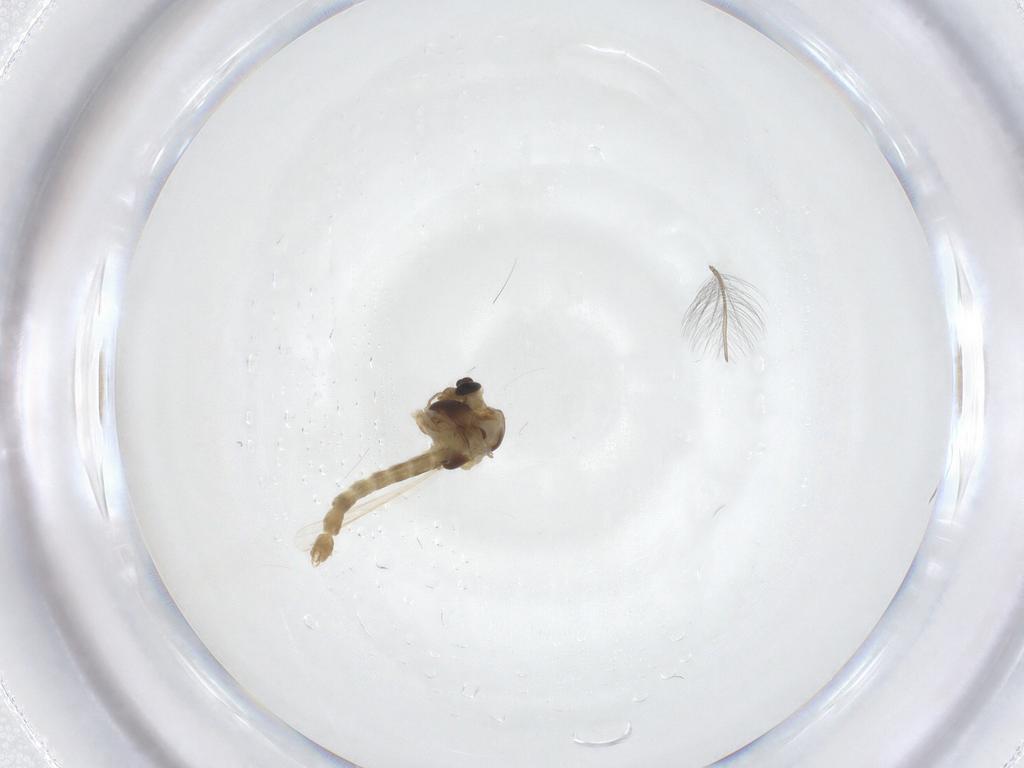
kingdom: Animalia
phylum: Arthropoda
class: Insecta
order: Diptera
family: Chironomidae
